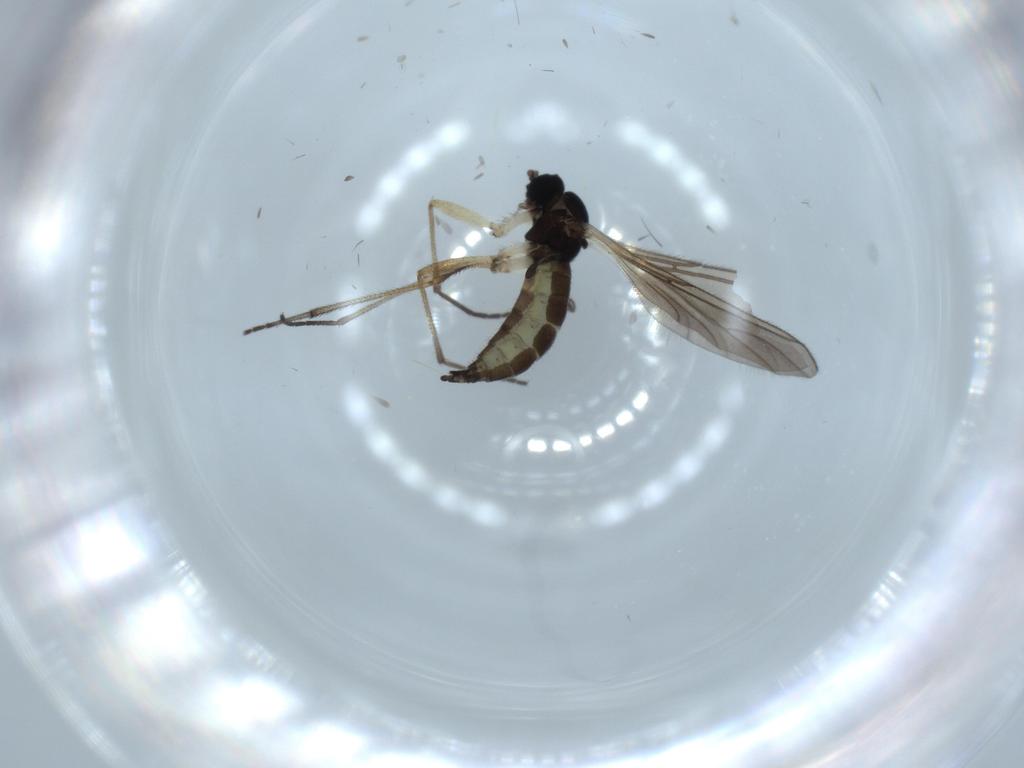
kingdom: Animalia
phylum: Arthropoda
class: Insecta
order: Diptera
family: Sciaridae
